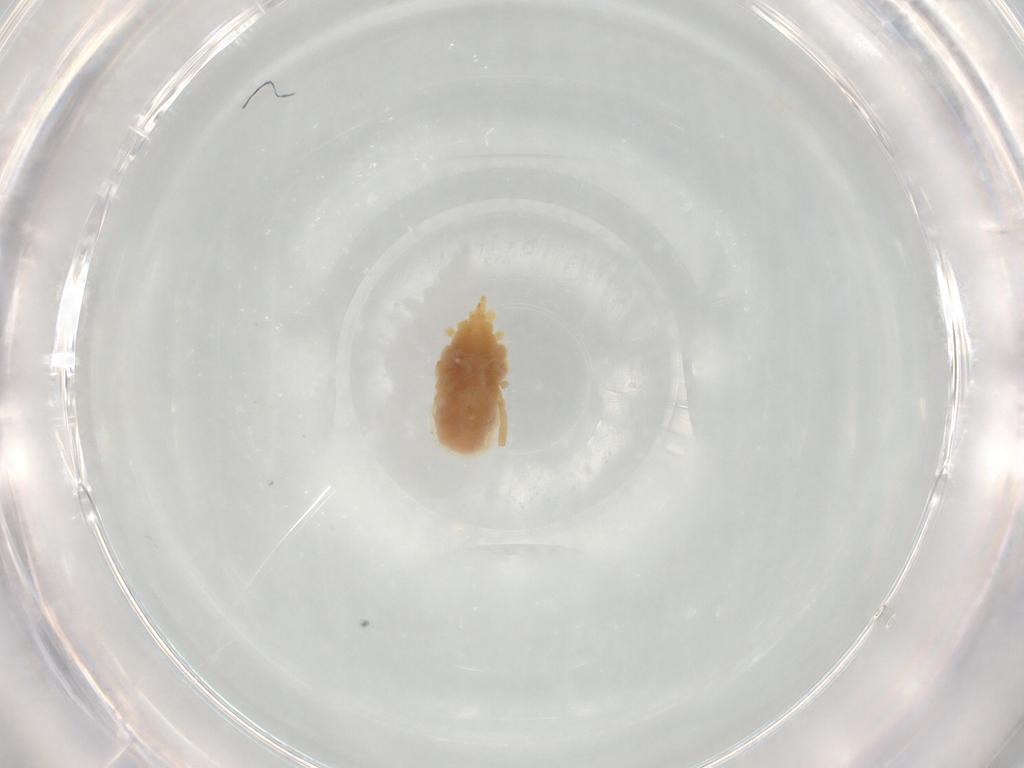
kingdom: Animalia
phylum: Arthropoda
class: Arachnida
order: Trombidiformes
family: Erythraeidae
